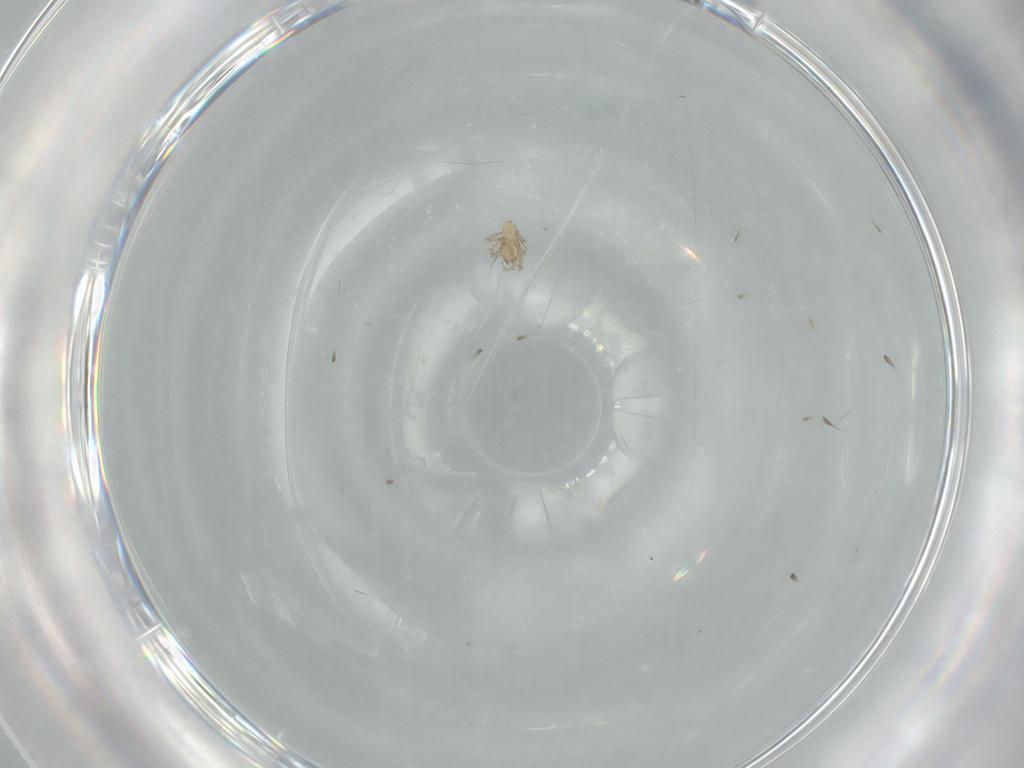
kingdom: Animalia
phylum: Arthropoda
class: Arachnida
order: Trombidiformes
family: Erythraeidae
